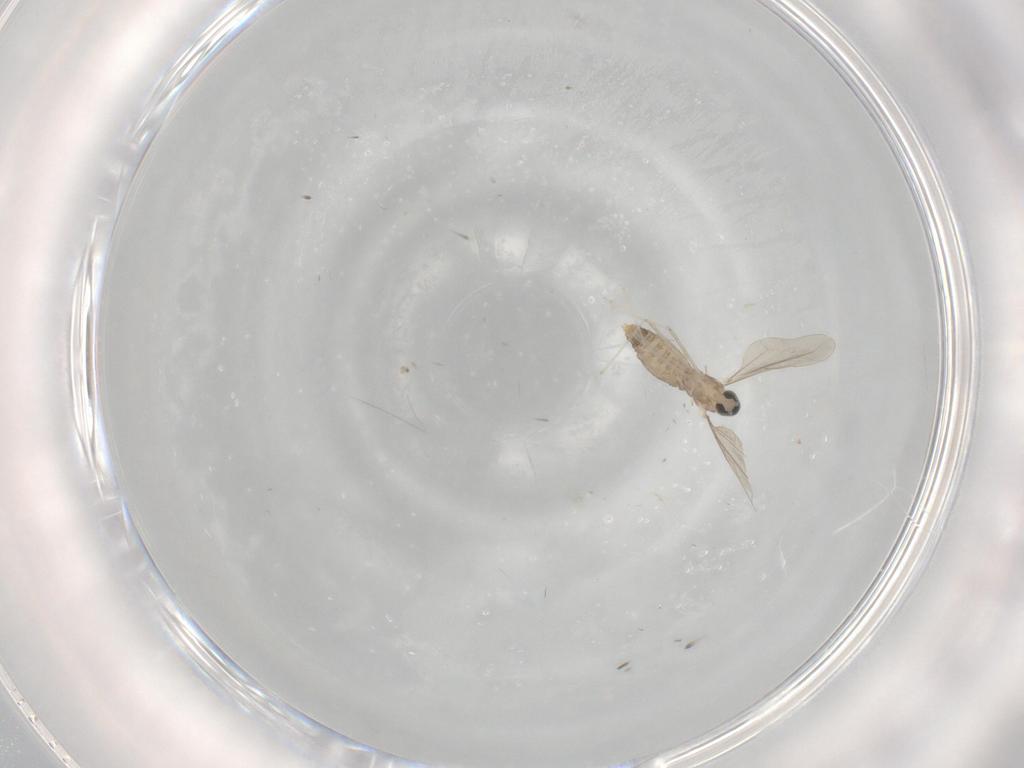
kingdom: Animalia
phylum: Arthropoda
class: Insecta
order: Diptera
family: Cecidomyiidae
